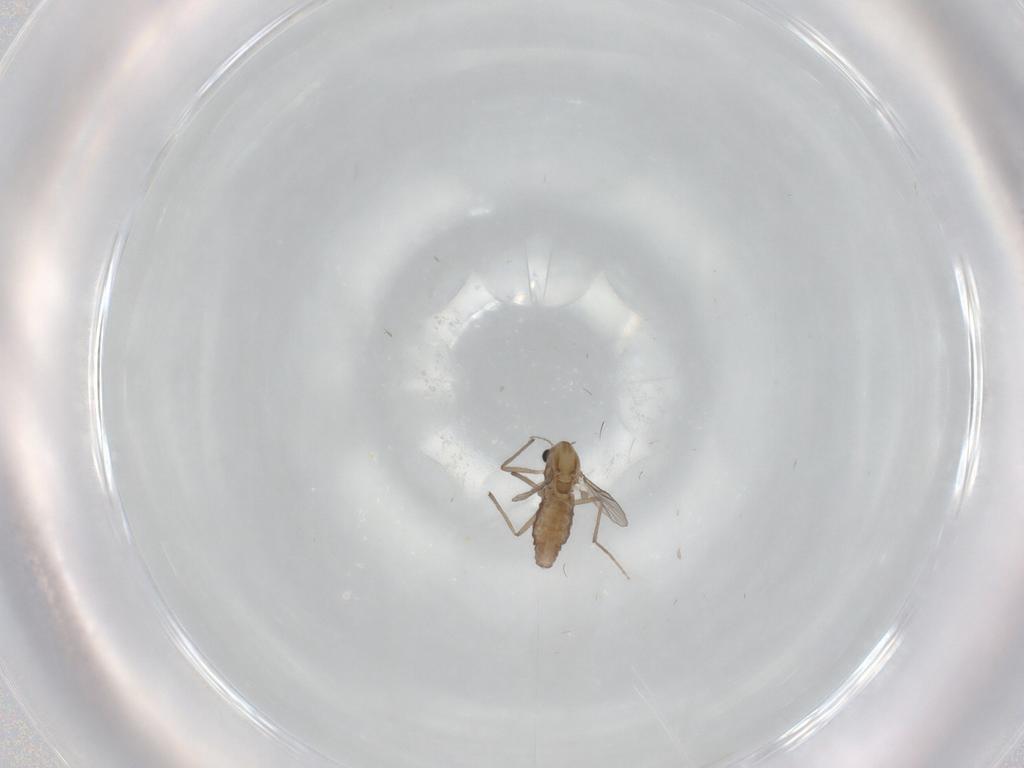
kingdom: Animalia
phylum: Arthropoda
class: Insecta
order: Diptera
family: Chironomidae
